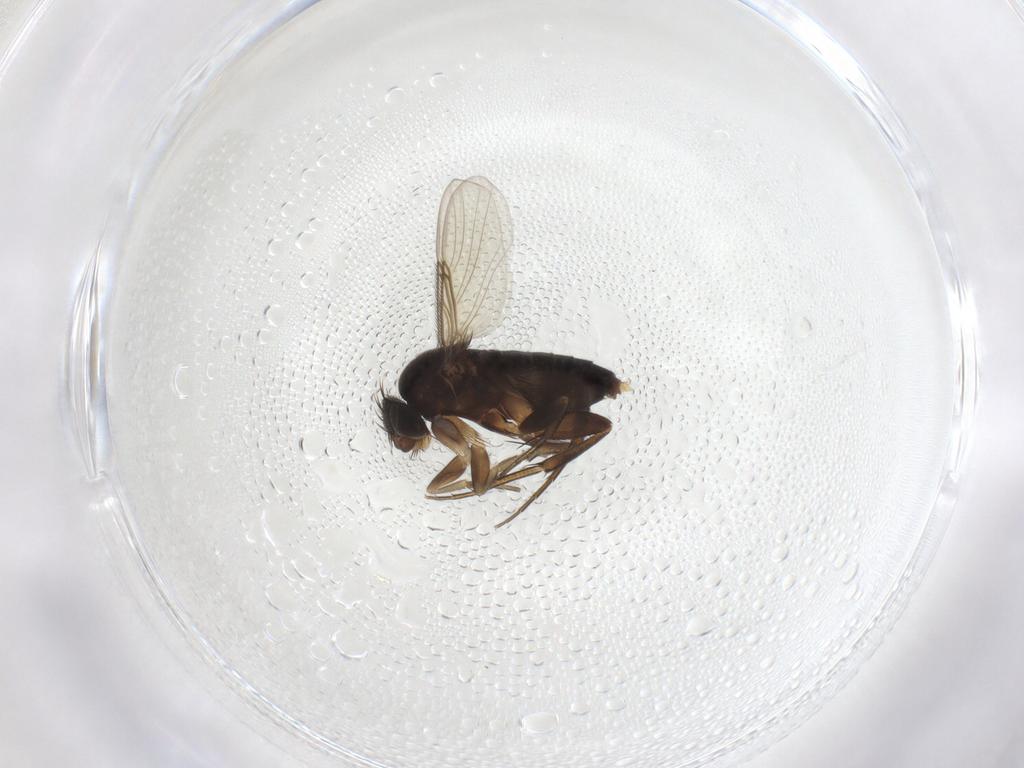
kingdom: Animalia
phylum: Arthropoda
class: Insecta
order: Diptera
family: Phoridae
